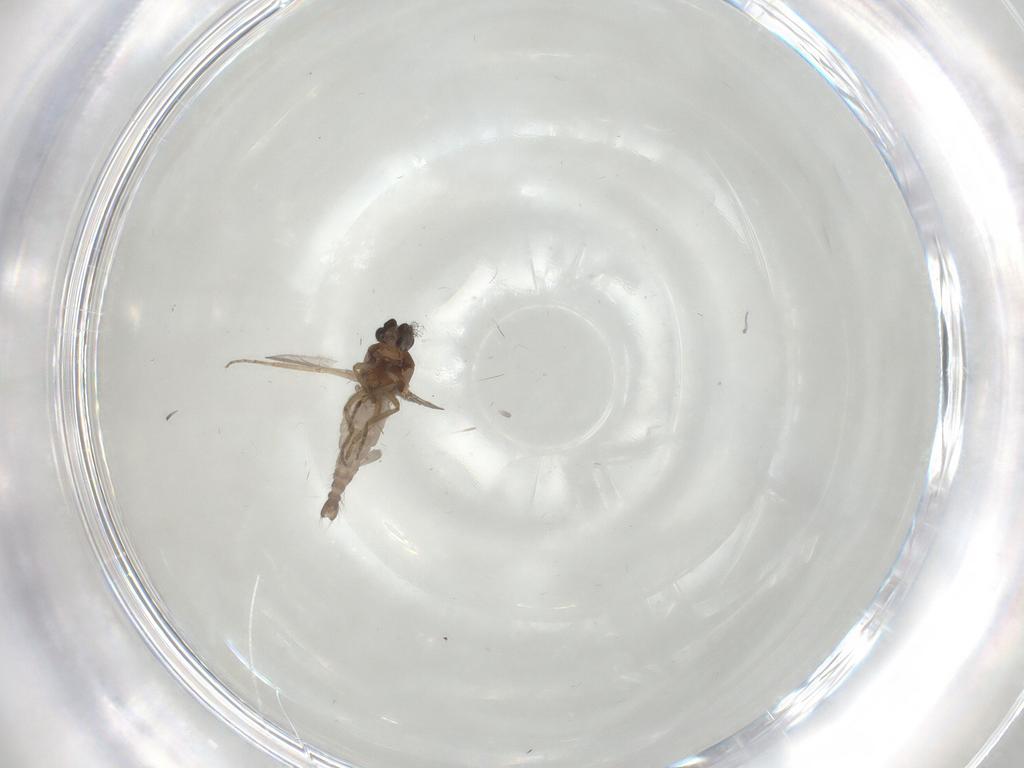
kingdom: Animalia
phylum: Arthropoda
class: Insecta
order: Diptera
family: Cecidomyiidae
